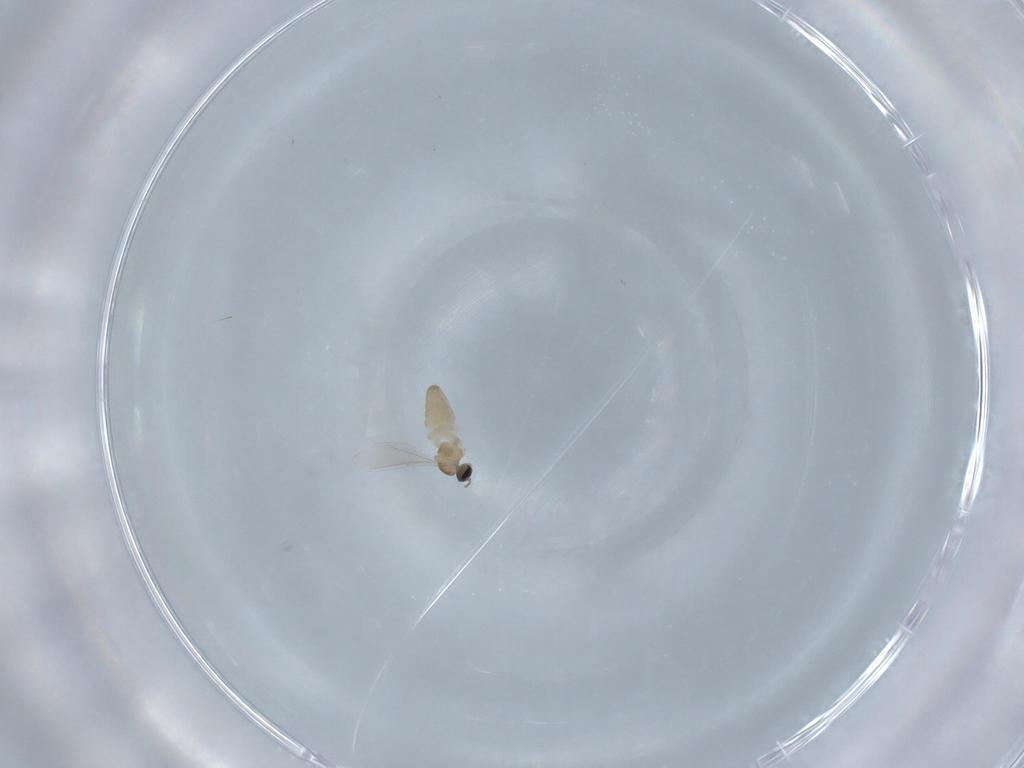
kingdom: Animalia
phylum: Arthropoda
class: Insecta
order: Diptera
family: Cecidomyiidae
